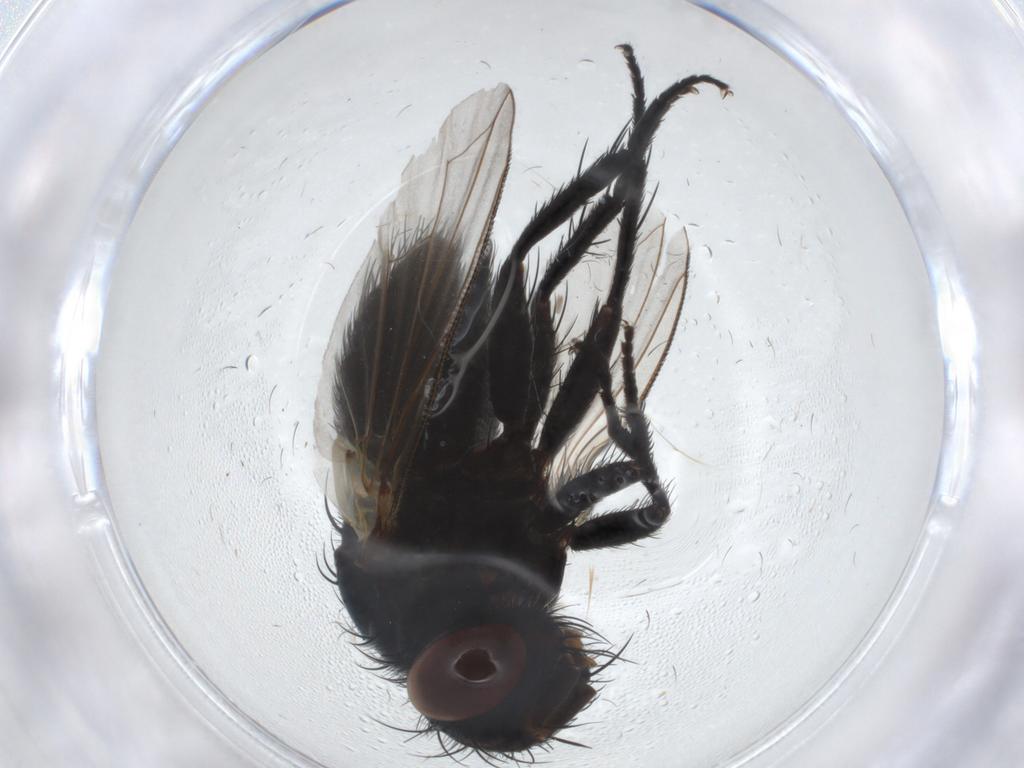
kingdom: Animalia
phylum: Arthropoda
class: Insecta
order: Diptera
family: Tachinidae
